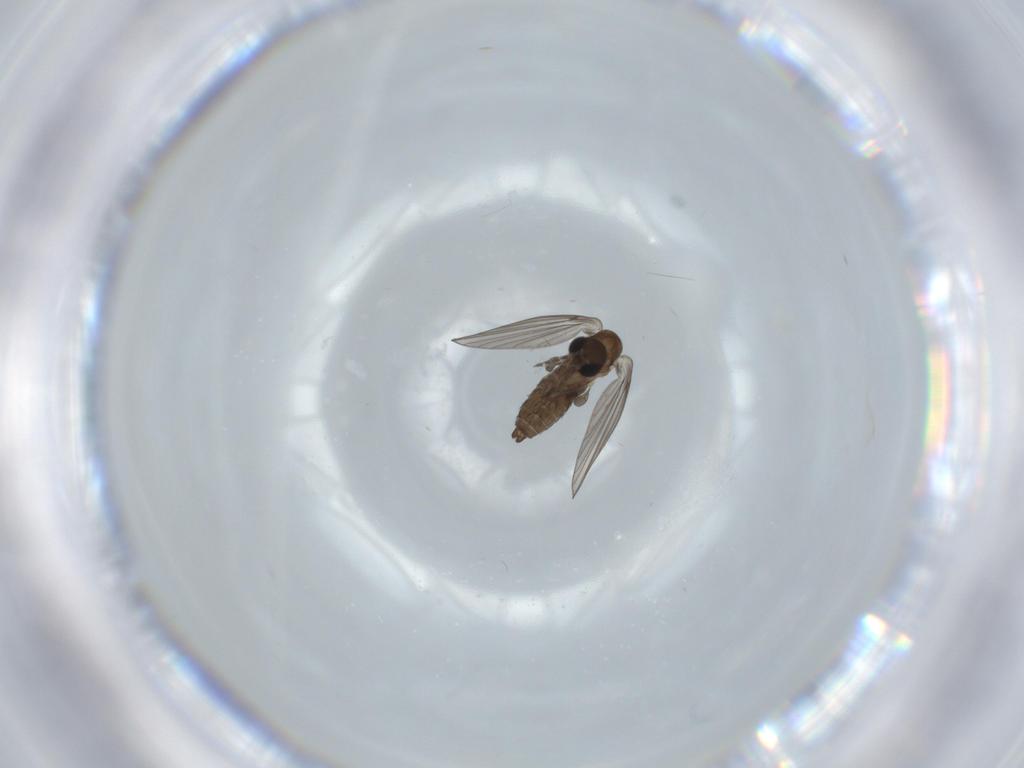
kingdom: Animalia
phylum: Arthropoda
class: Insecta
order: Diptera
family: Psychodidae
